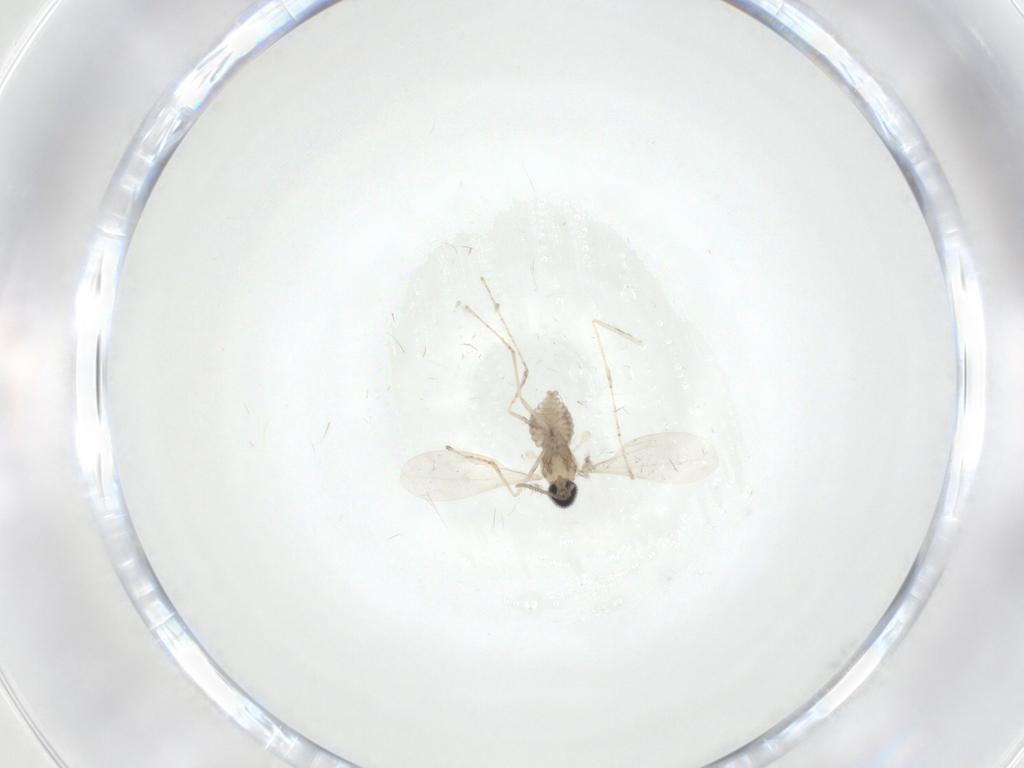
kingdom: Animalia
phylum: Arthropoda
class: Insecta
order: Diptera
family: Cecidomyiidae
